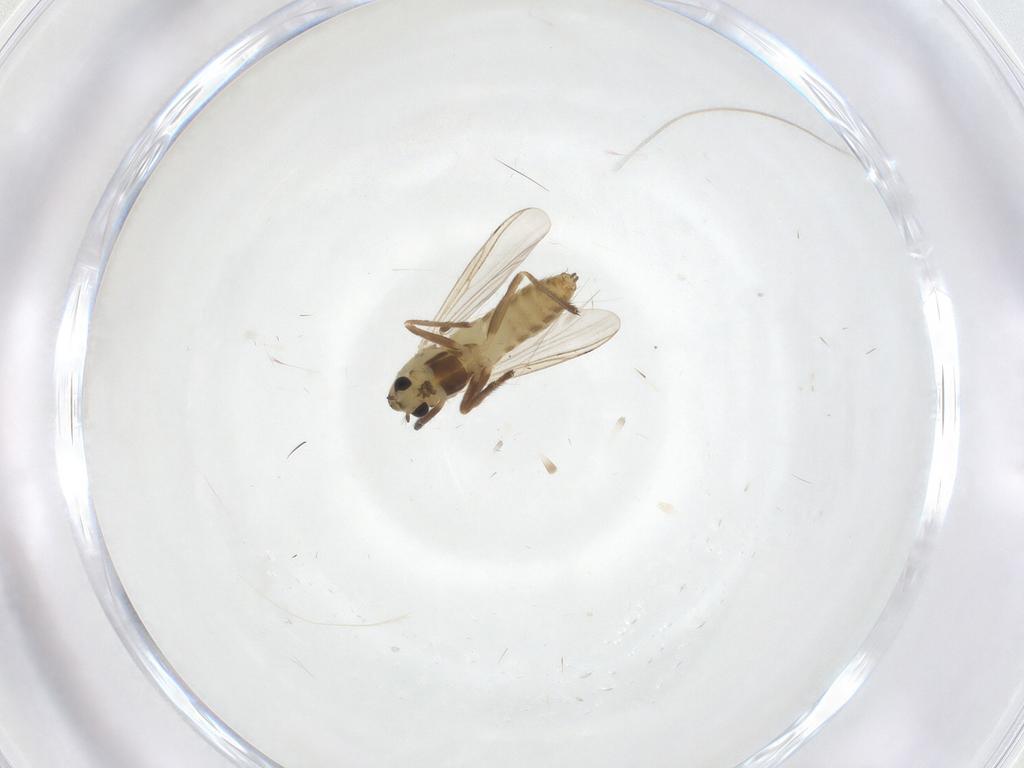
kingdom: Animalia
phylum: Arthropoda
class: Insecta
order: Diptera
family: Chironomidae
